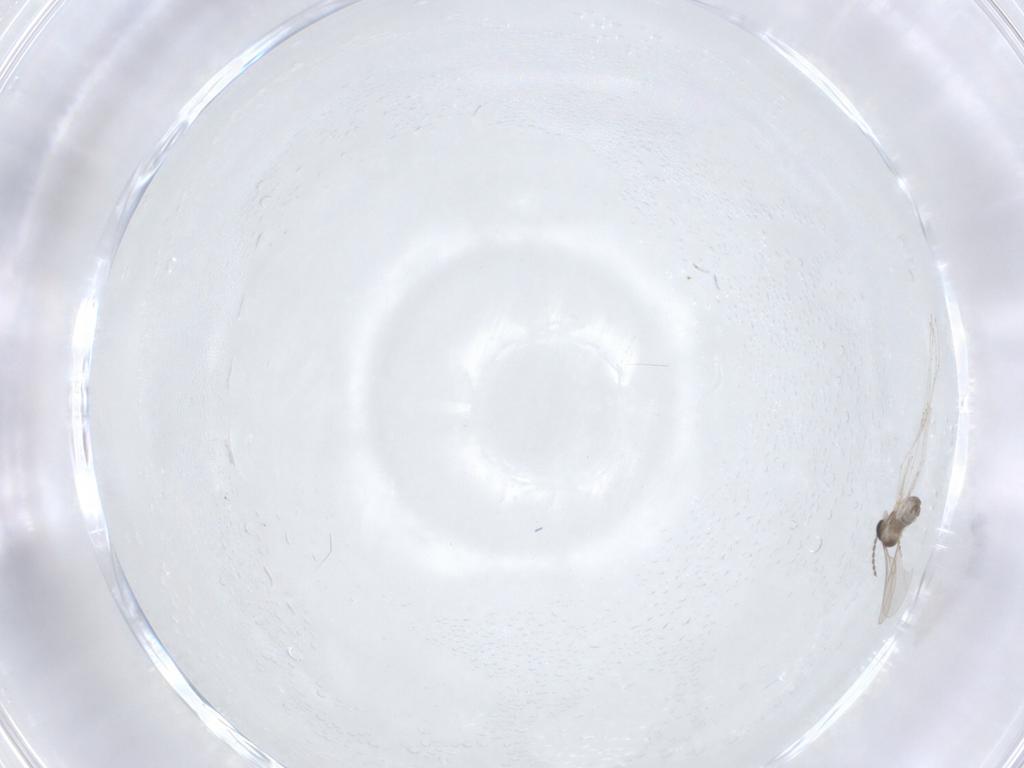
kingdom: Animalia
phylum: Arthropoda
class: Insecta
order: Diptera
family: Cecidomyiidae
